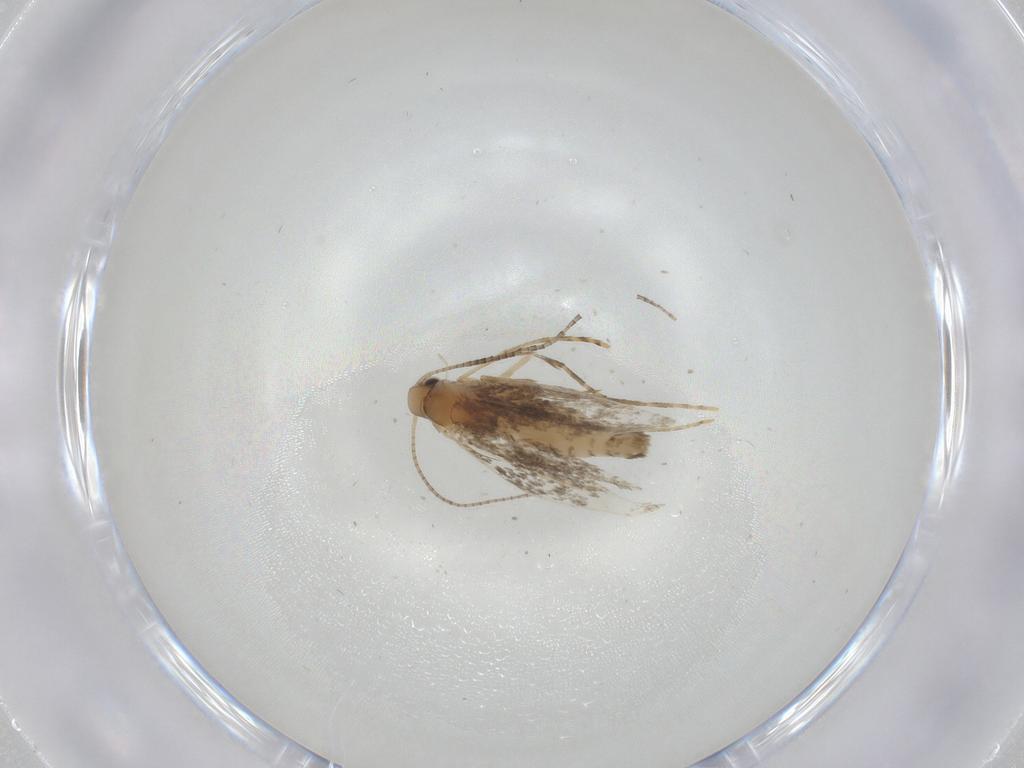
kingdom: Animalia
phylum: Arthropoda
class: Insecta
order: Lepidoptera
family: Gracillariidae
